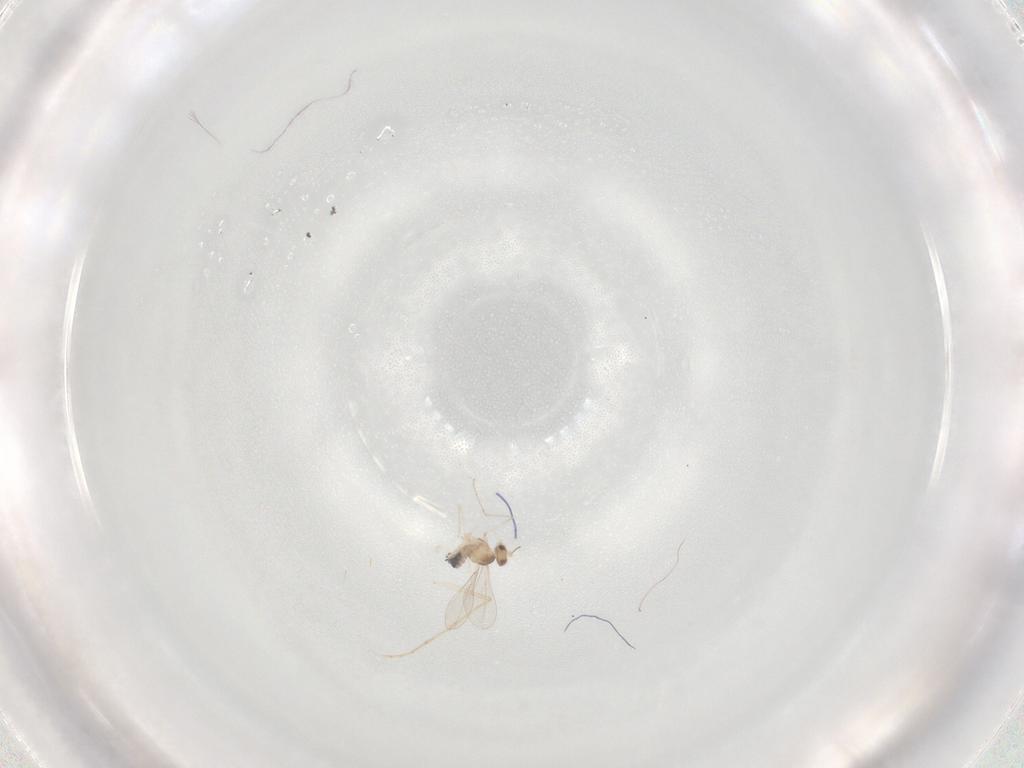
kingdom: Animalia
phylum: Arthropoda
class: Insecta
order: Diptera
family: Cecidomyiidae
